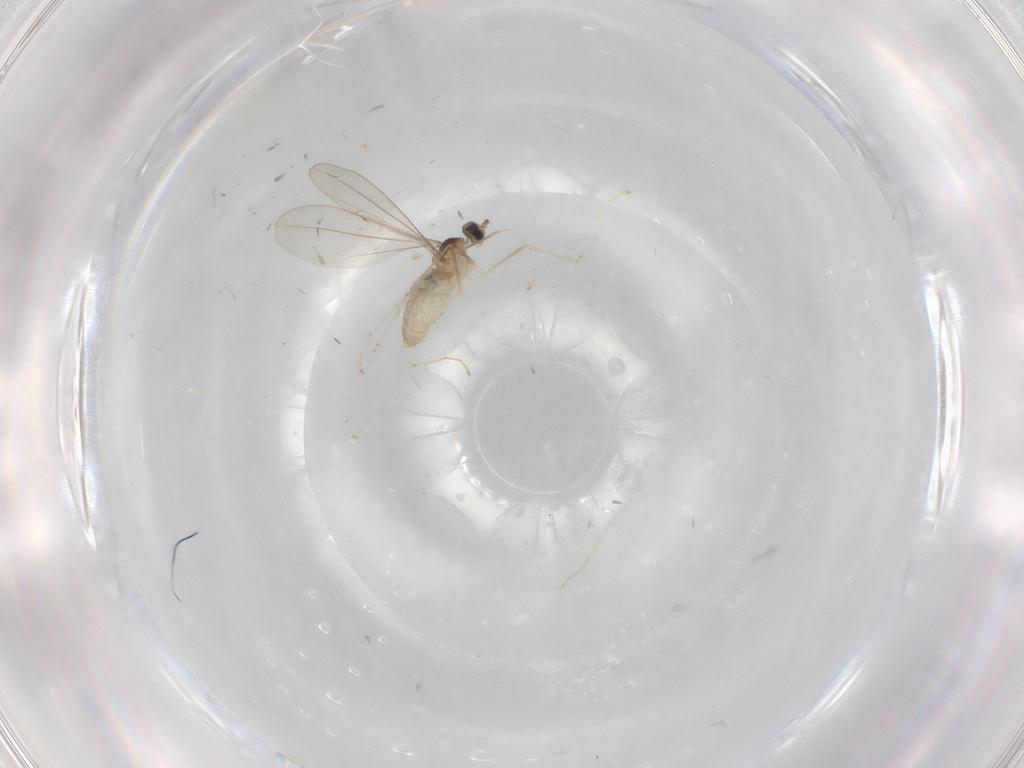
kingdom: Animalia
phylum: Arthropoda
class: Insecta
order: Diptera
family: Cecidomyiidae
